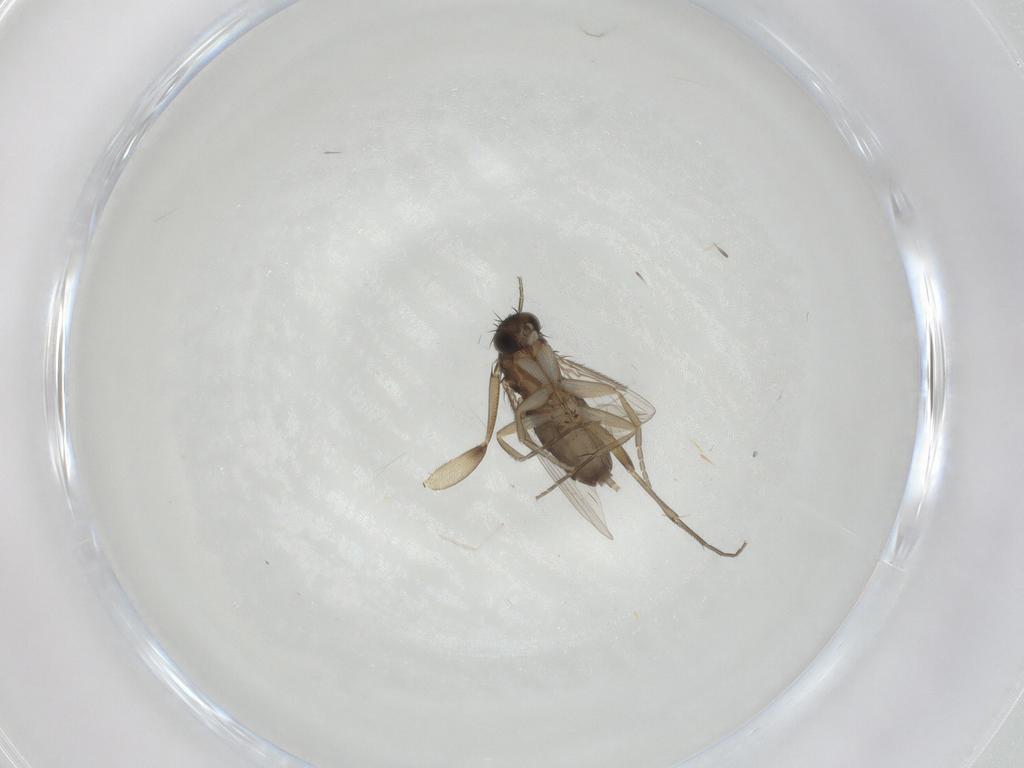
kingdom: Animalia
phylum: Arthropoda
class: Insecta
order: Diptera
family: Phoridae
